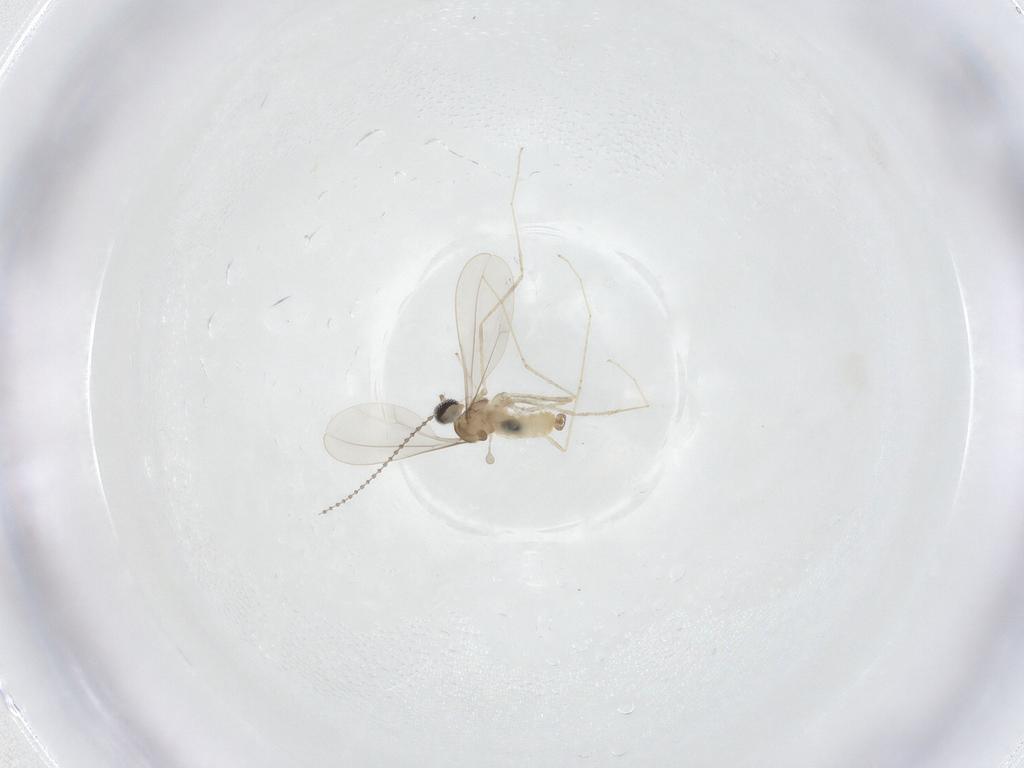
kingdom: Animalia
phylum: Arthropoda
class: Insecta
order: Diptera
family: Cecidomyiidae
